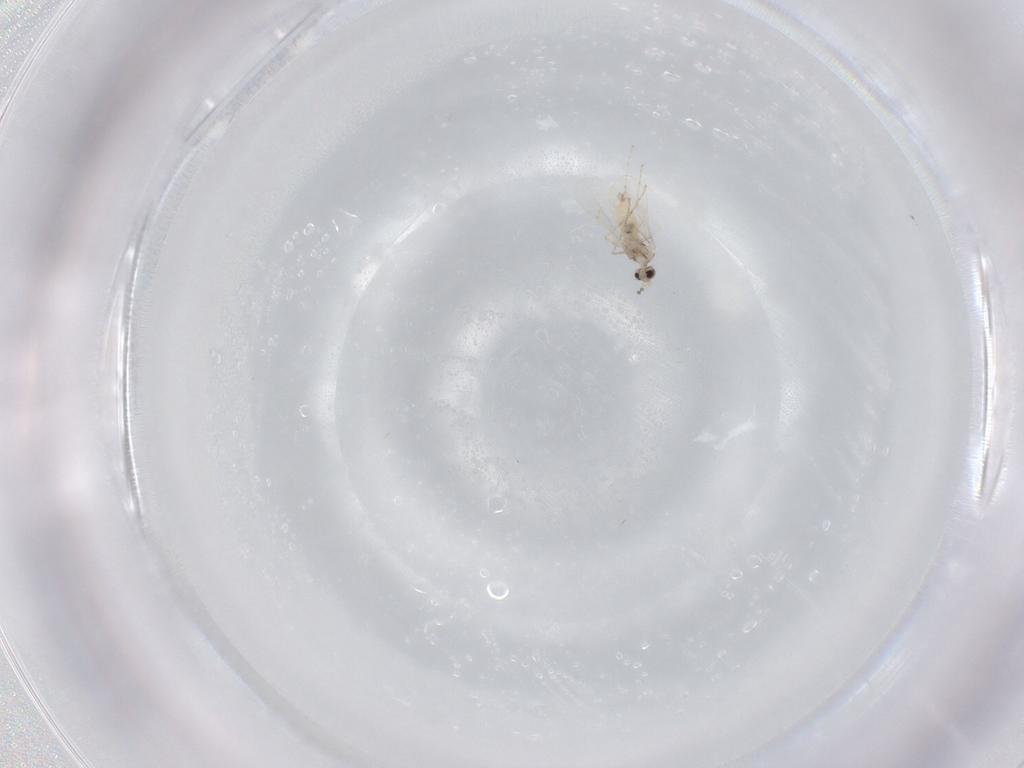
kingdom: Animalia
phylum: Arthropoda
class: Insecta
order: Diptera
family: Cecidomyiidae
